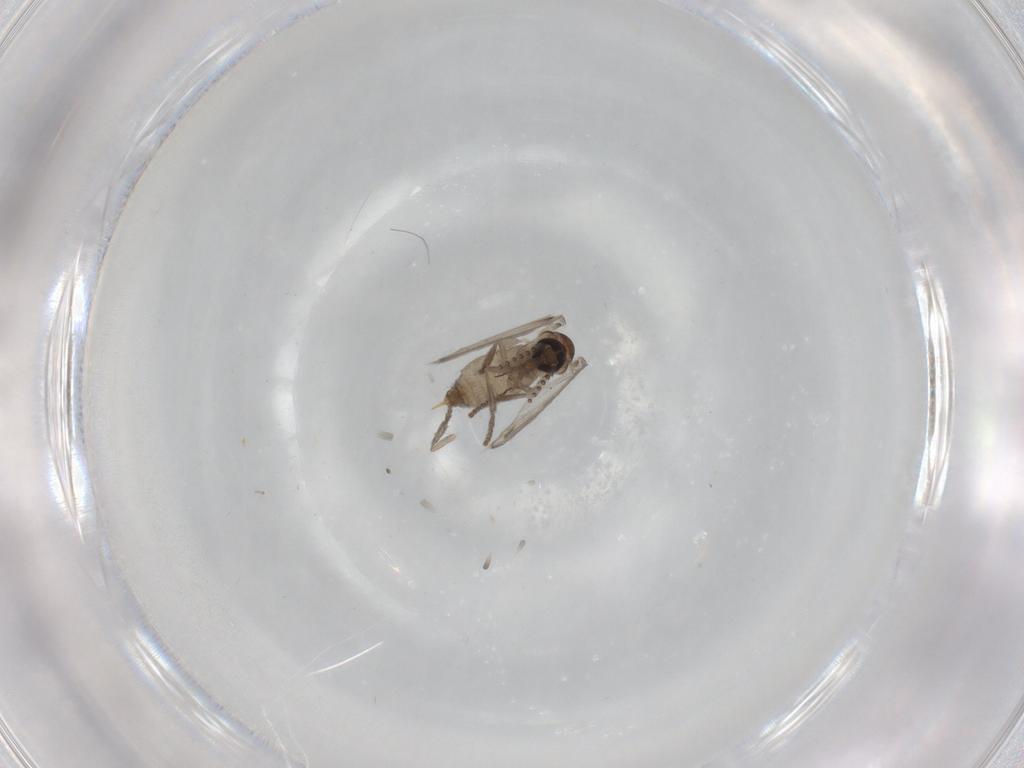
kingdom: Animalia
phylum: Arthropoda
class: Insecta
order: Diptera
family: Psychodidae
